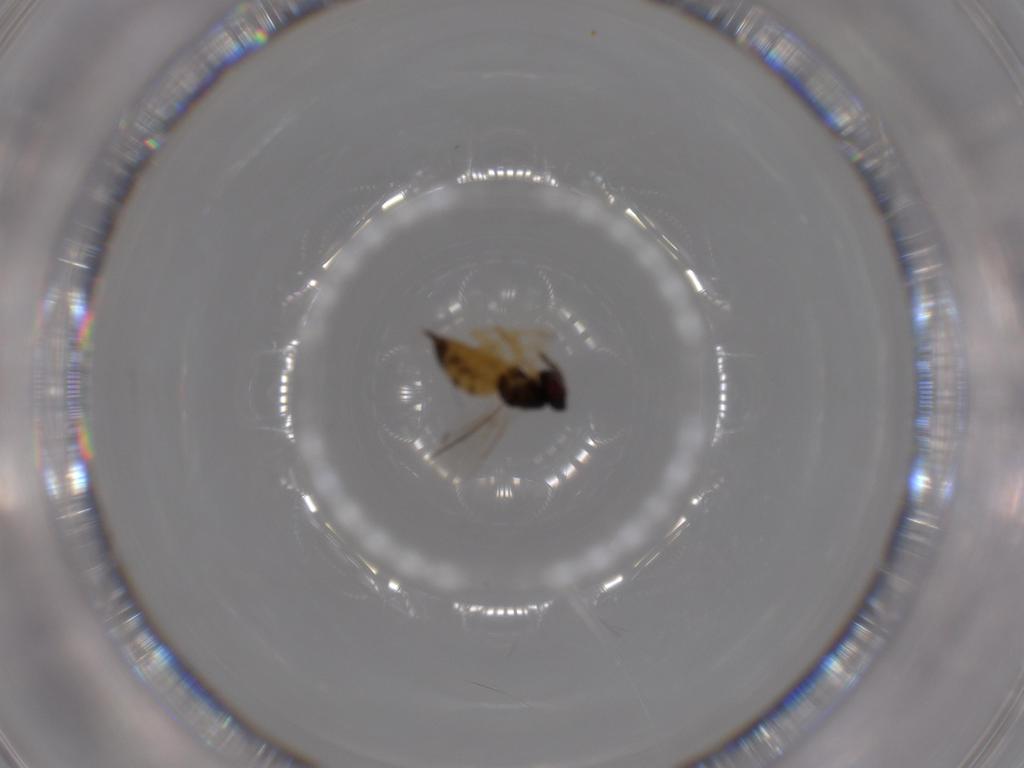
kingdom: Animalia
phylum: Arthropoda
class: Insecta
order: Hymenoptera
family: Eulophidae
